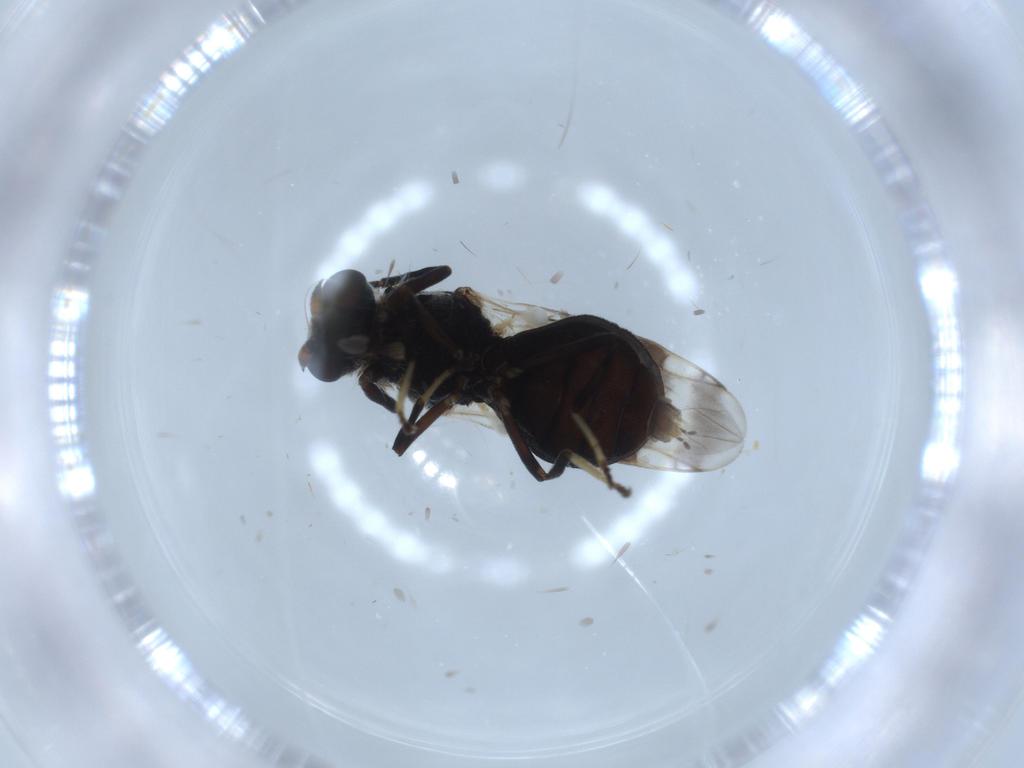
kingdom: Animalia
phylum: Arthropoda
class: Insecta
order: Diptera
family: Stratiomyidae
